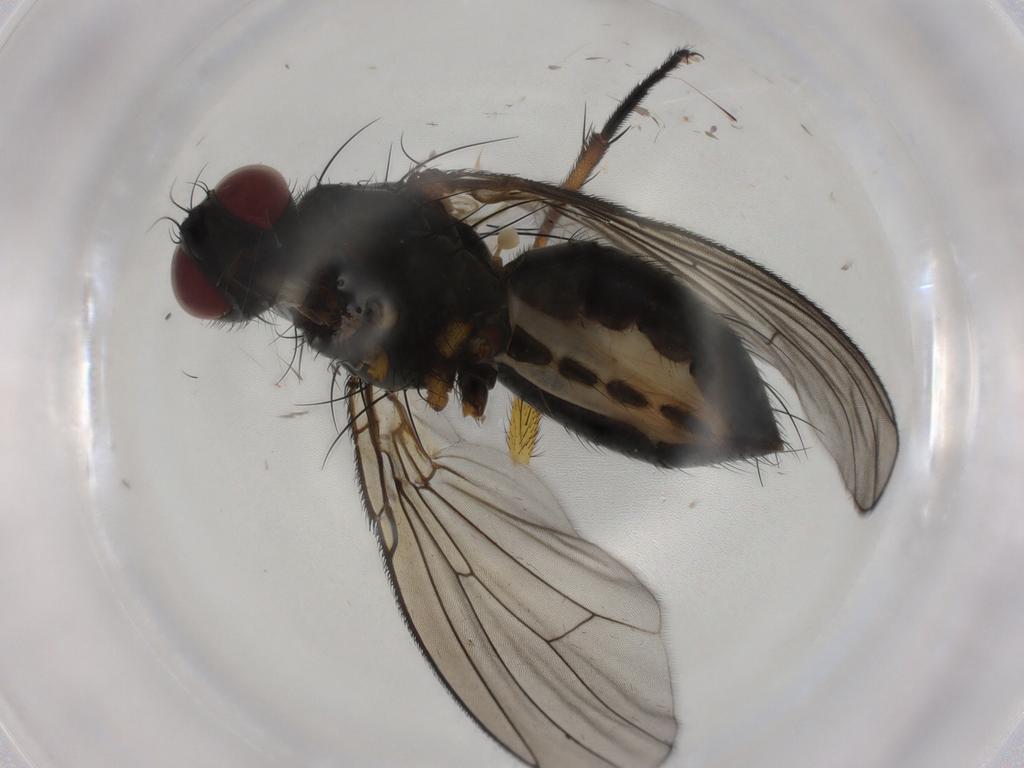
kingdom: Animalia
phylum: Arthropoda
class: Insecta
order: Diptera
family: Muscidae
